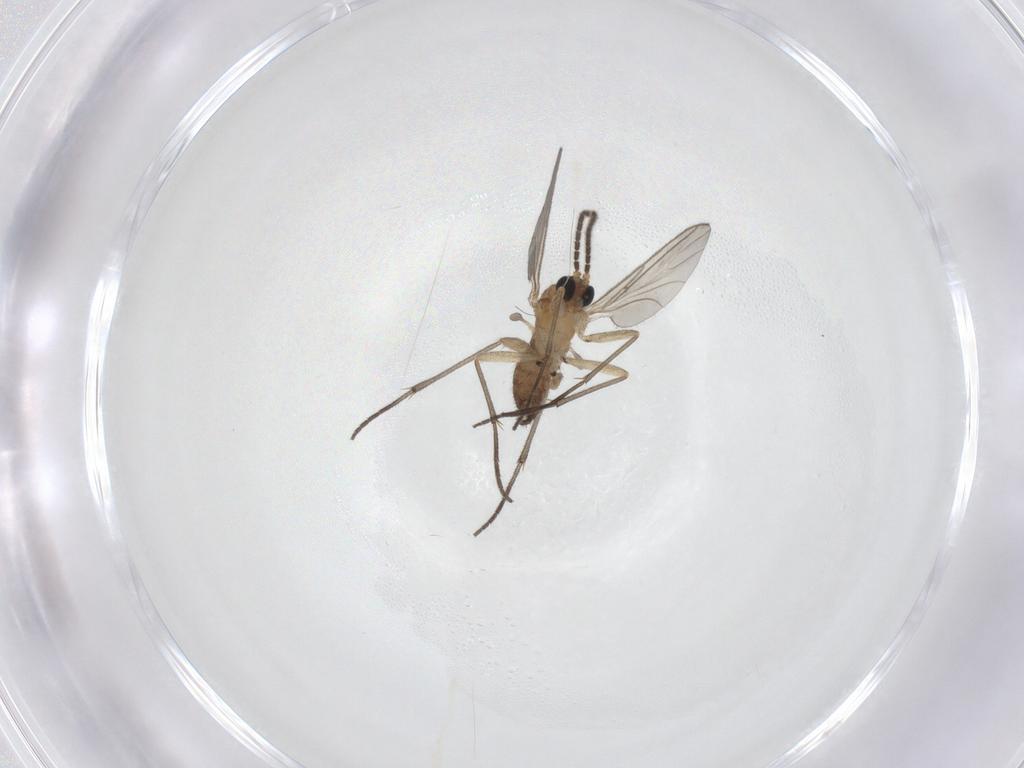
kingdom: Animalia
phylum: Arthropoda
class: Insecta
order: Diptera
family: Sciaridae
